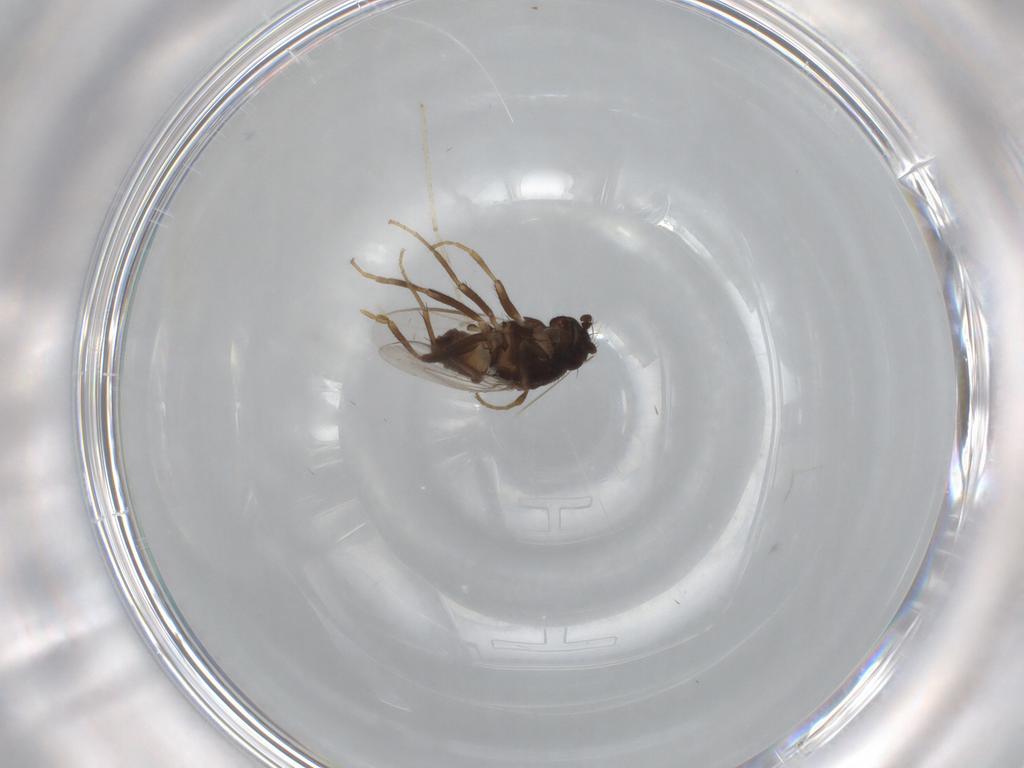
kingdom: Animalia
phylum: Arthropoda
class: Insecta
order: Diptera
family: Sphaeroceridae
